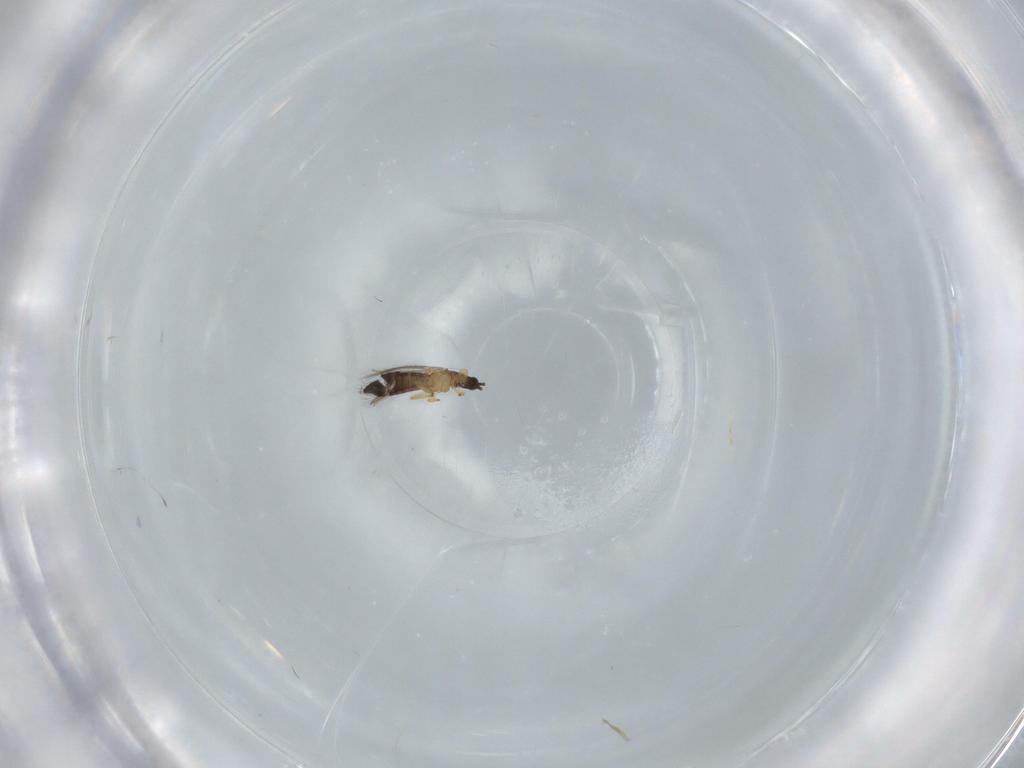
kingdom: Animalia
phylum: Arthropoda
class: Insecta
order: Thysanoptera
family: Thripidae
